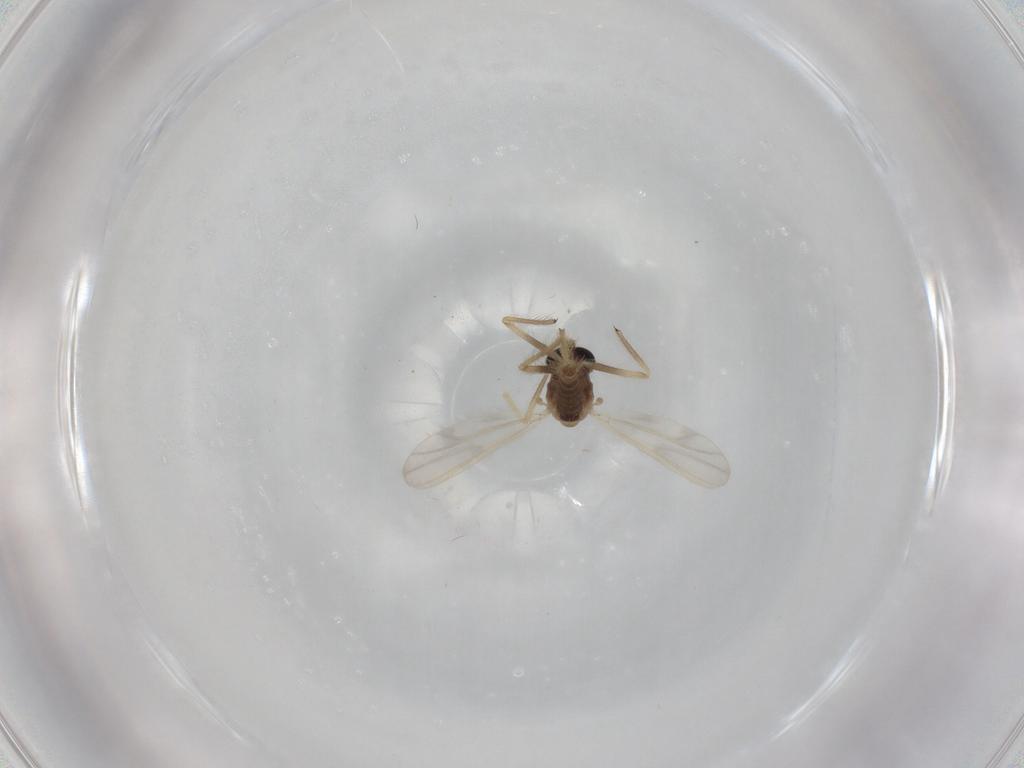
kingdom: Animalia
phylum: Arthropoda
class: Insecta
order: Diptera
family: Chironomidae
